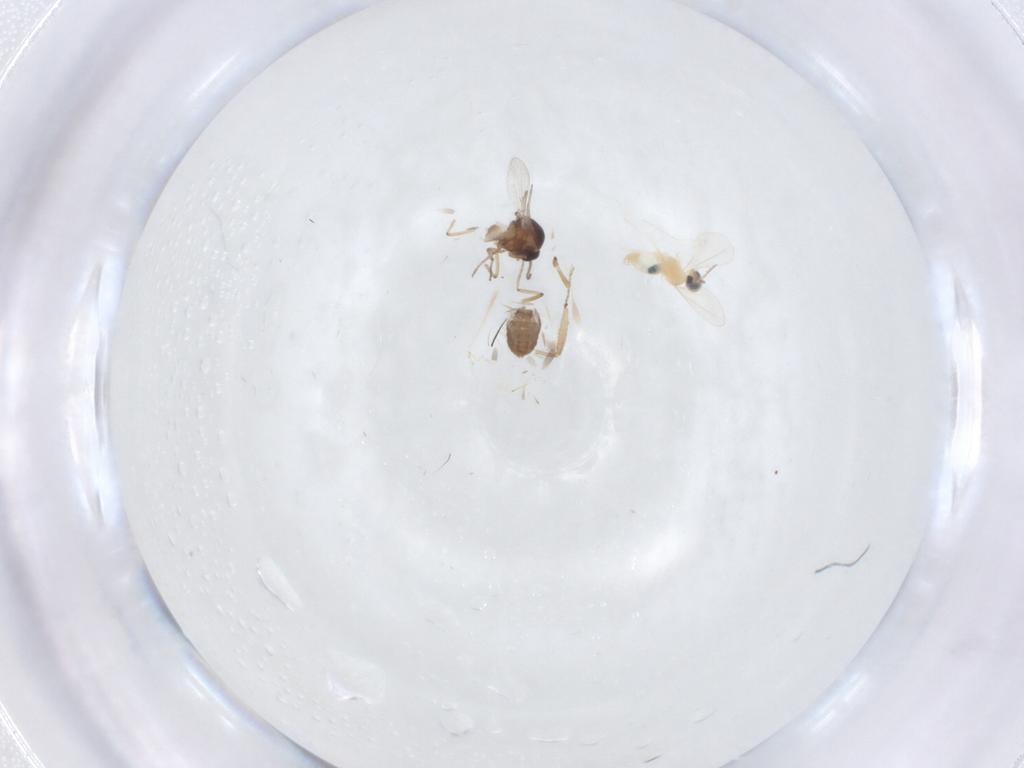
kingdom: Animalia
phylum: Arthropoda
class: Insecta
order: Diptera
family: Ceratopogonidae
